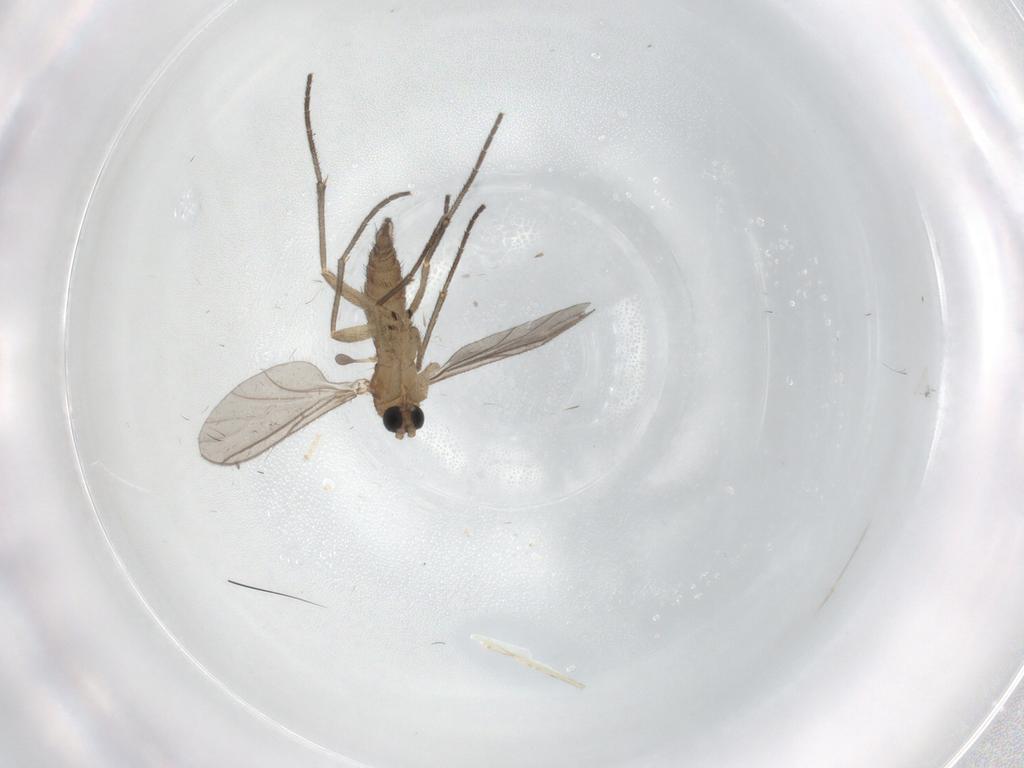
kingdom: Animalia
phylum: Arthropoda
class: Insecta
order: Diptera
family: Sciaridae
